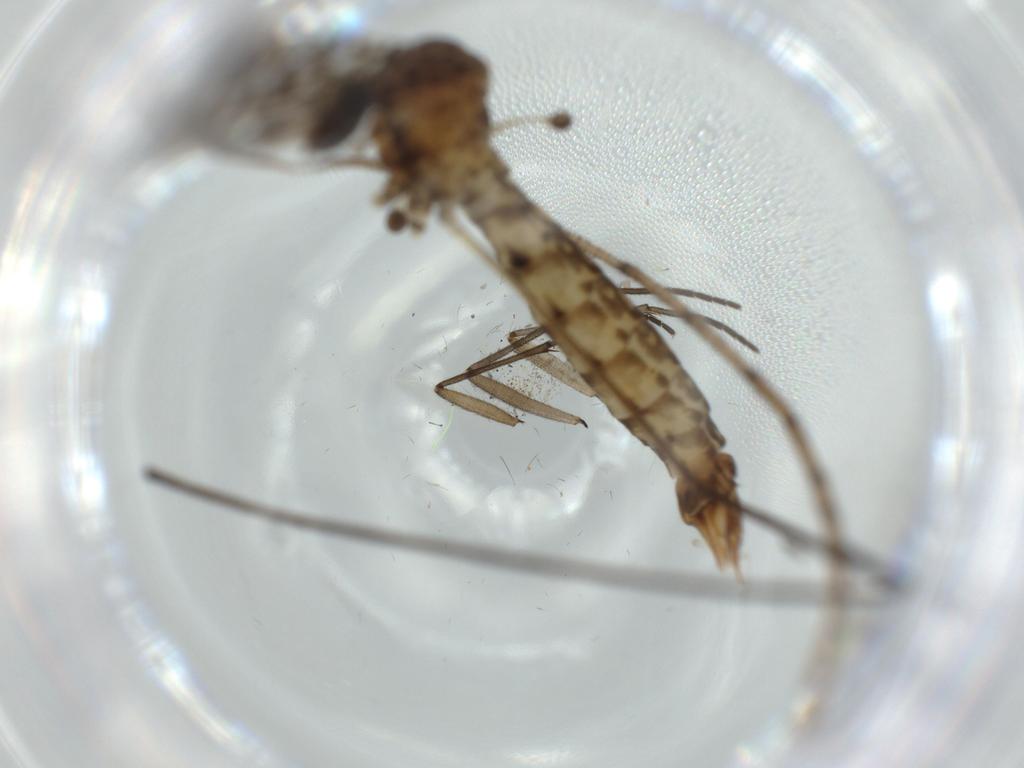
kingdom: Animalia
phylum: Arthropoda
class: Insecta
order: Diptera
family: Sciaridae
